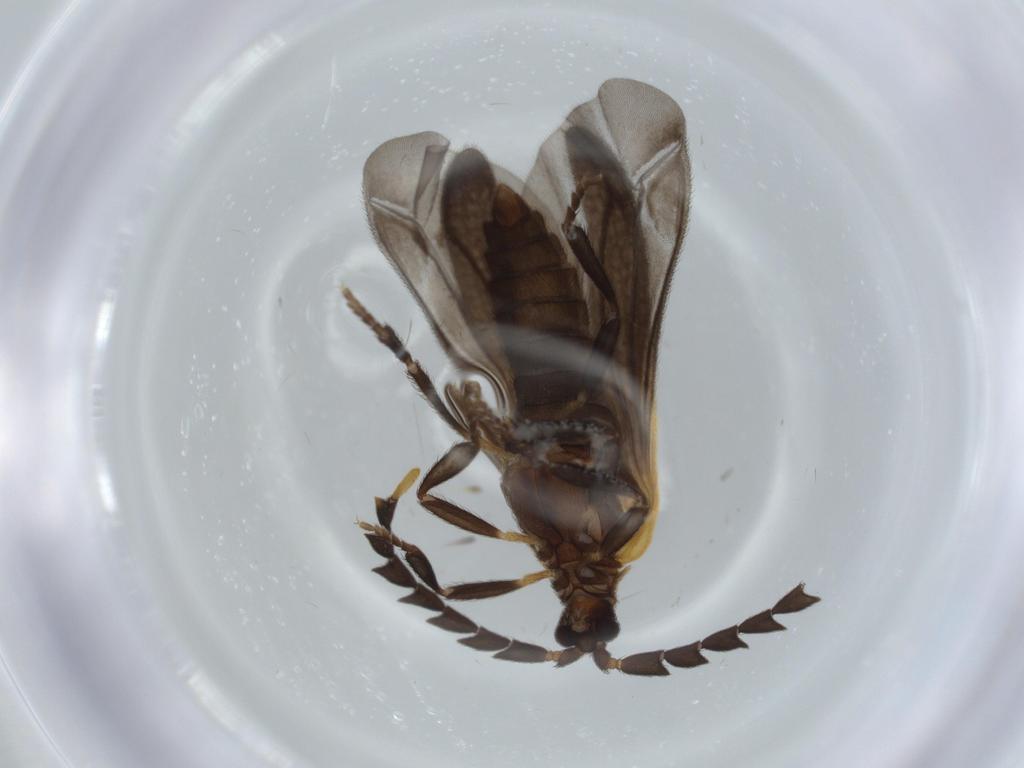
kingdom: Animalia
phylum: Arthropoda
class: Insecta
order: Coleoptera
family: Lycidae
